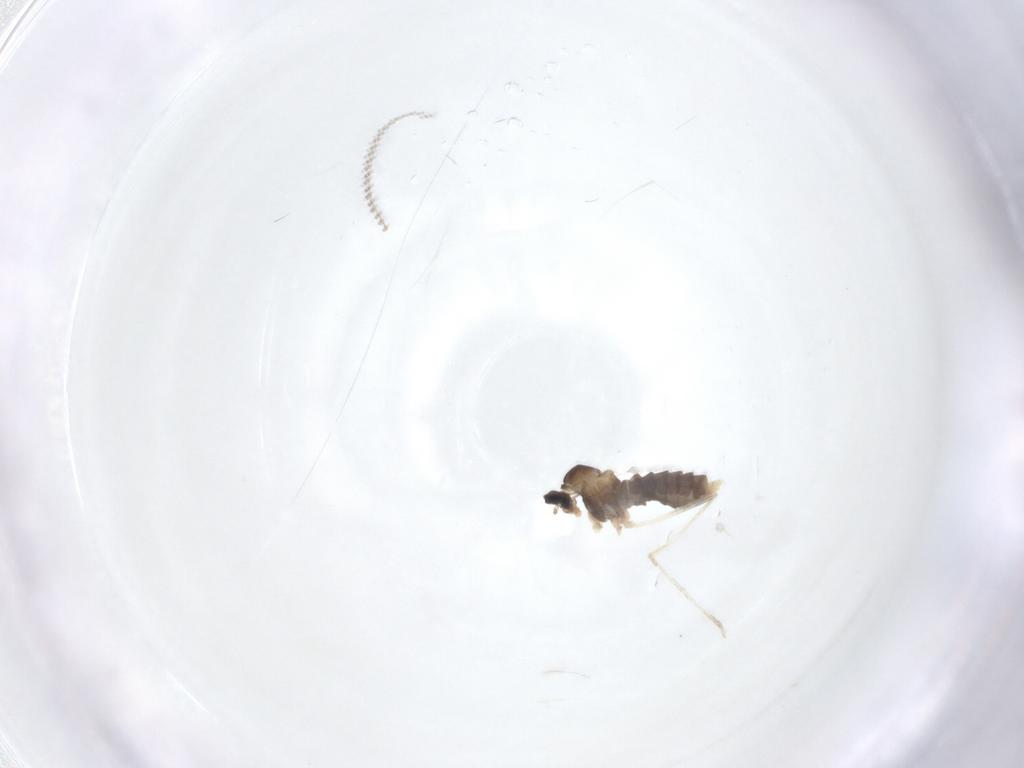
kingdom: Animalia
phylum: Arthropoda
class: Insecta
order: Diptera
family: Cecidomyiidae
